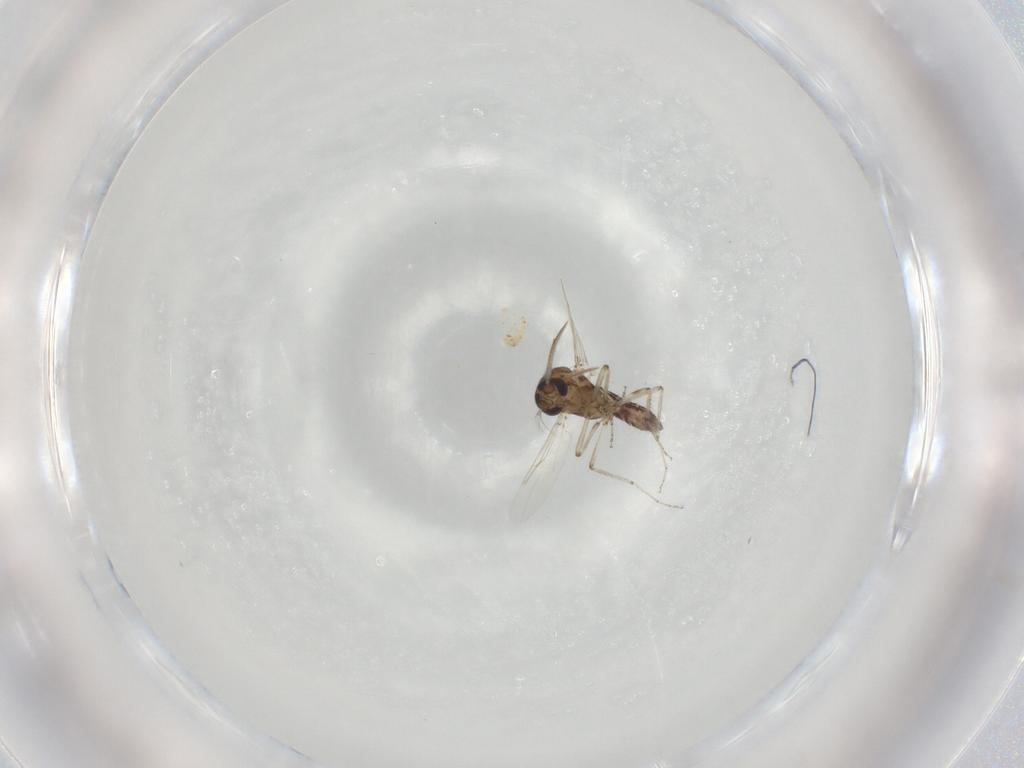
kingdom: Animalia
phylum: Arthropoda
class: Insecta
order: Diptera
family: Ceratopogonidae
